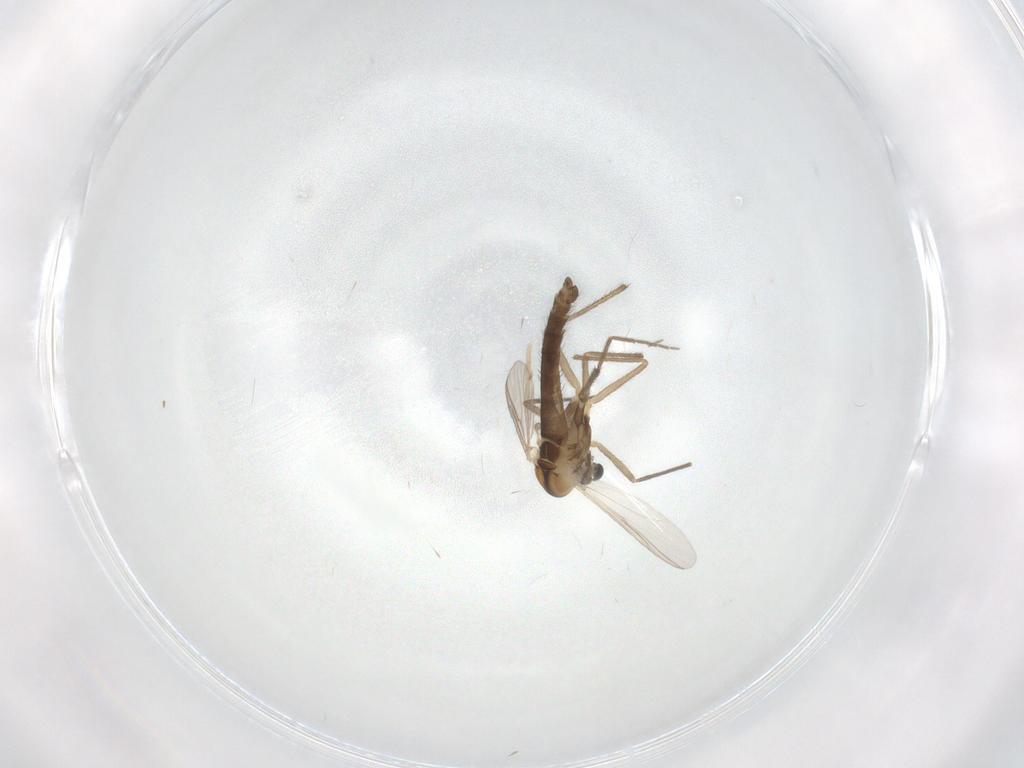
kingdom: Animalia
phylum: Arthropoda
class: Insecta
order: Diptera
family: Chironomidae
